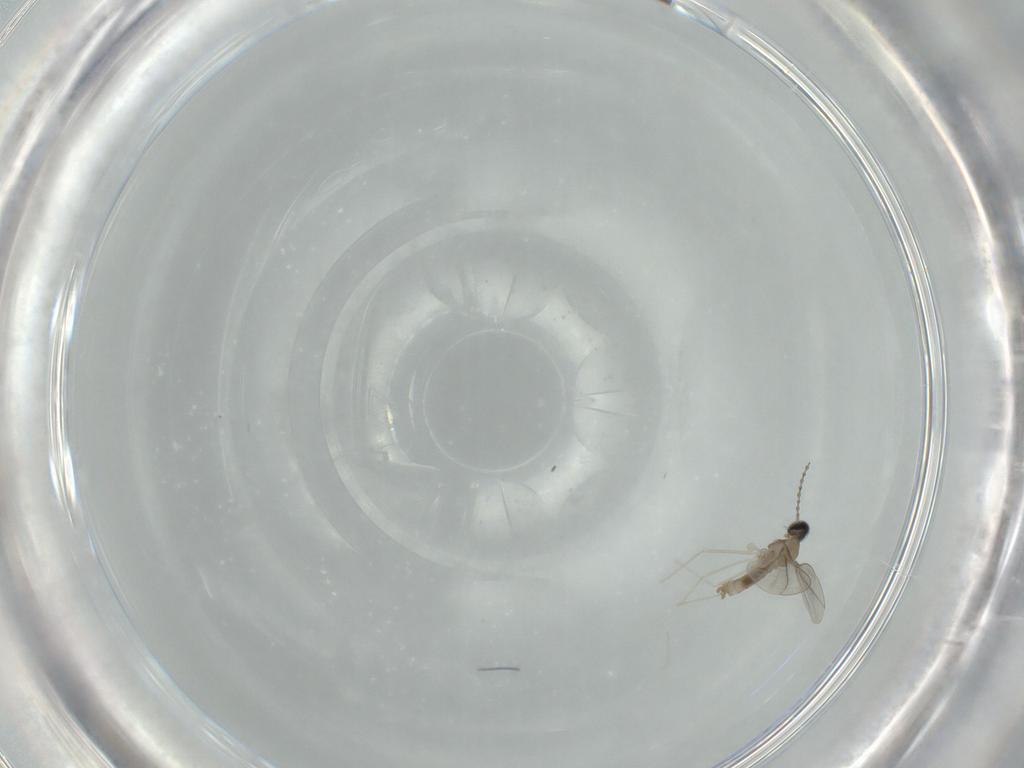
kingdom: Animalia
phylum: Arthropoda
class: Insecta
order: Diptera
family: Cecidomyiidae
